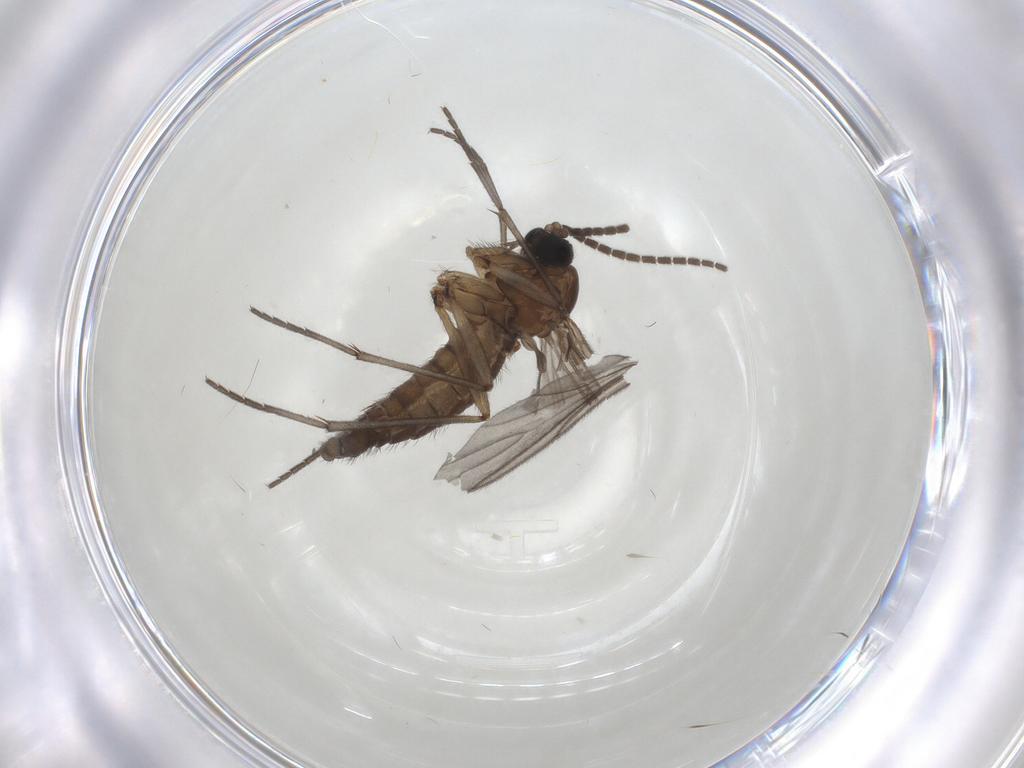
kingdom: Animalia
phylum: Arthropoda
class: Insecta
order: Diptera
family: Sciaridae
